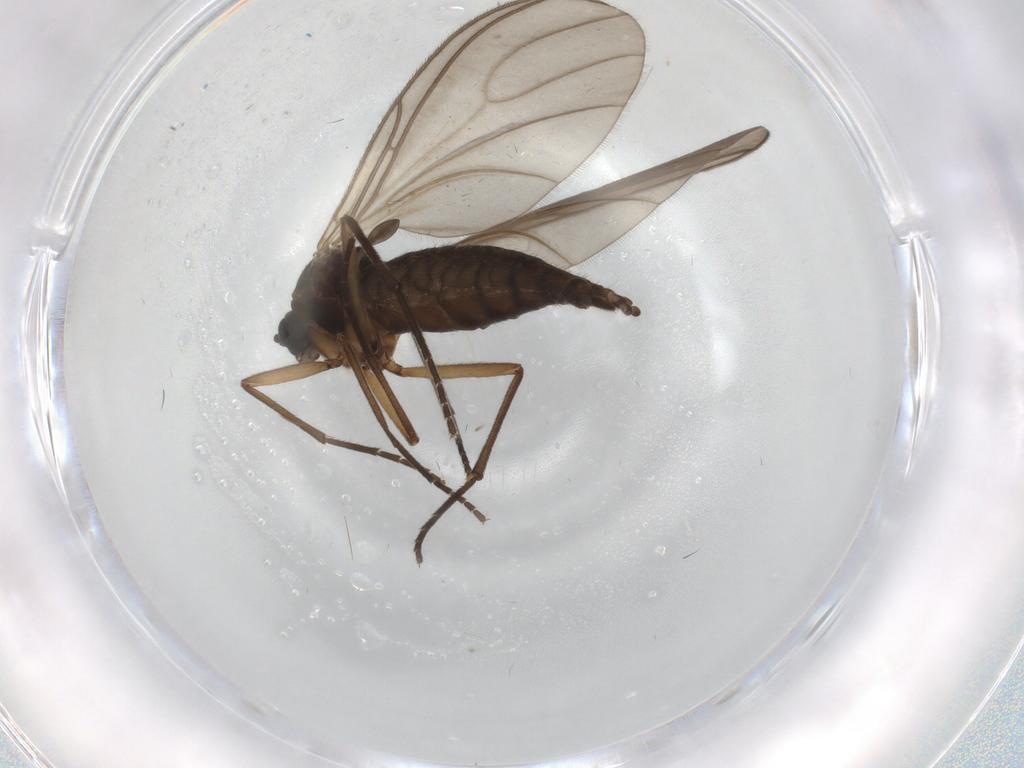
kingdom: Animalia
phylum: Arthropoda
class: Insecta
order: Diptera
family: Sciaridae
